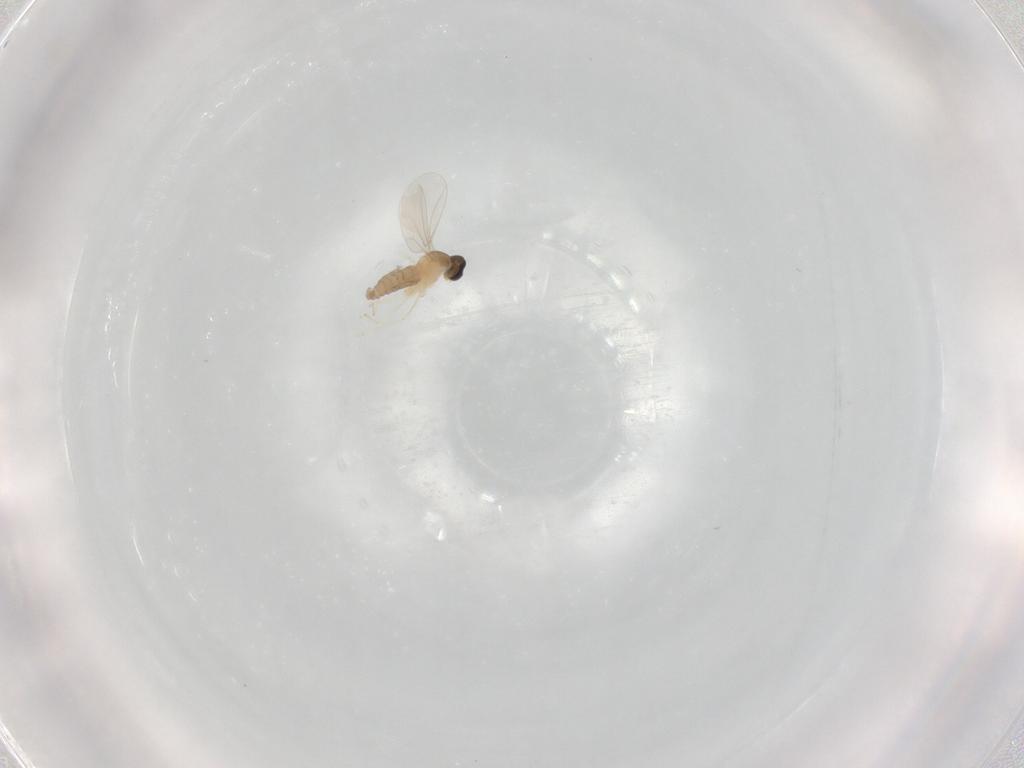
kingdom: Animalia
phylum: Arthropoda
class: Insecta
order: Diptera
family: Cecidomyiidae
